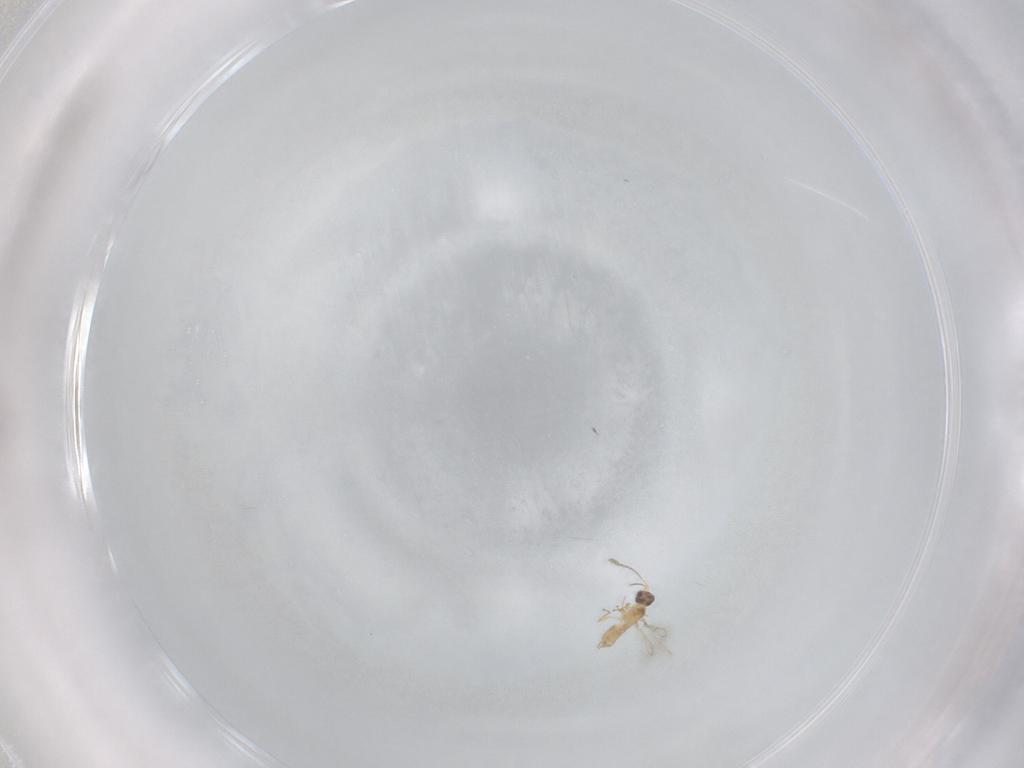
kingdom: Animalia
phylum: Arthropoda
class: Insecta
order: Hymenoptera
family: Mymaridae
